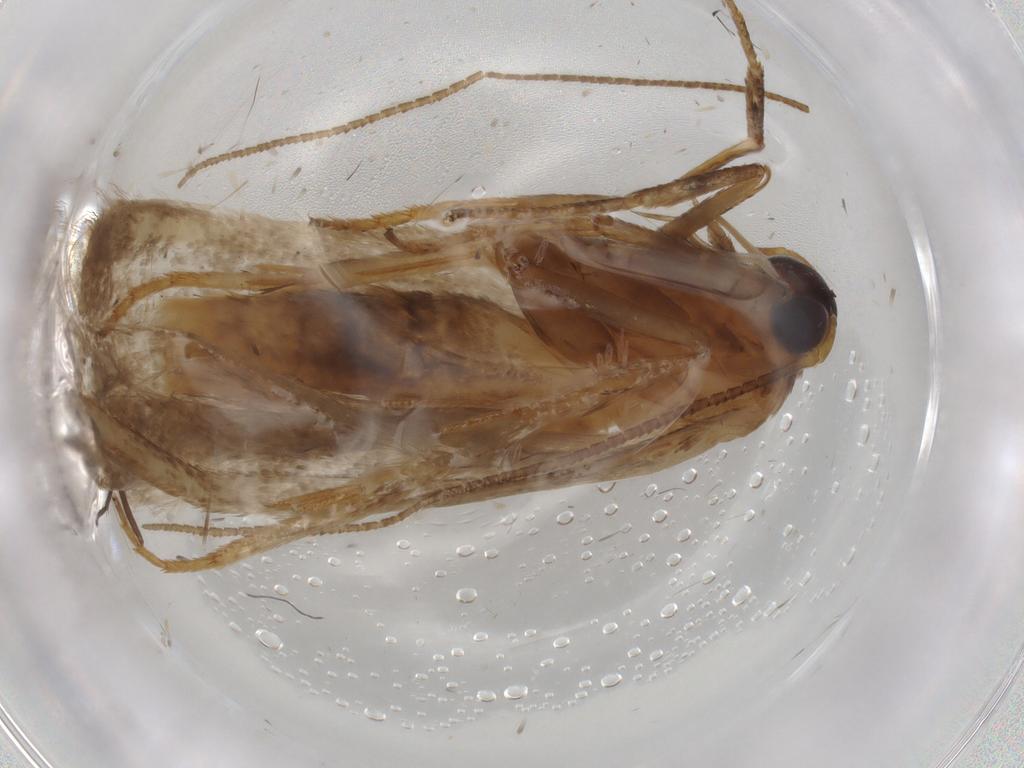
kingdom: Animalia
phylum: Arthropoda
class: Insecta
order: Lepidoptera
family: Blastobasidae
